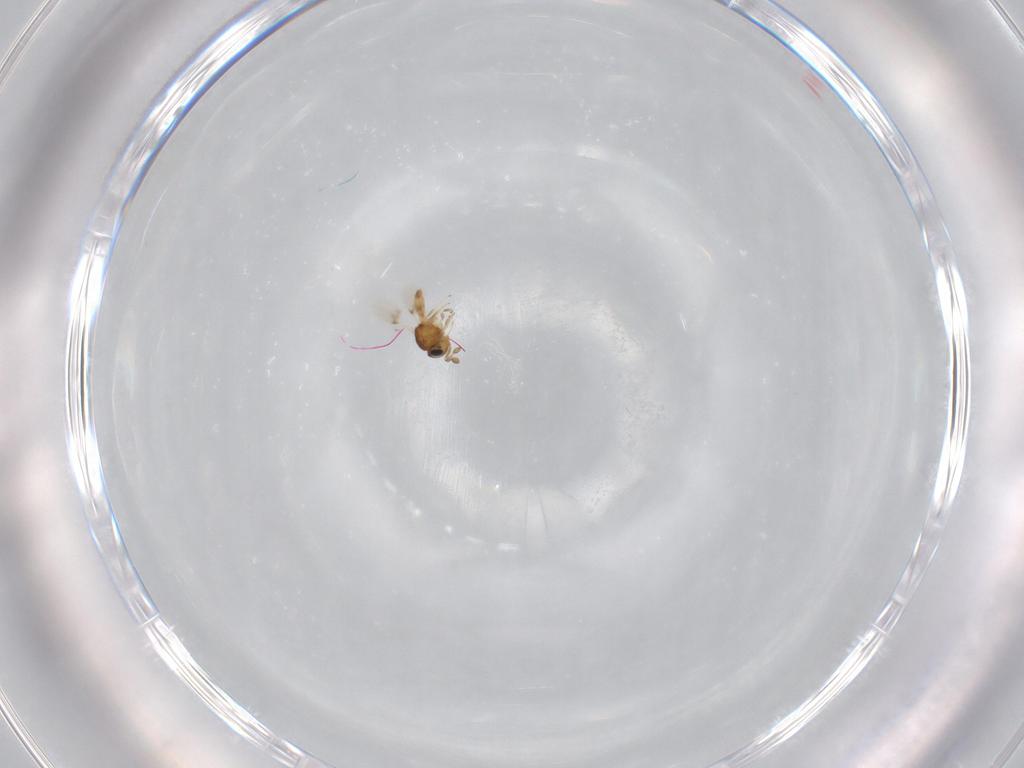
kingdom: Animalia
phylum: Arthropoda
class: Insecta
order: Hymenoptera
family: Scelionidae
